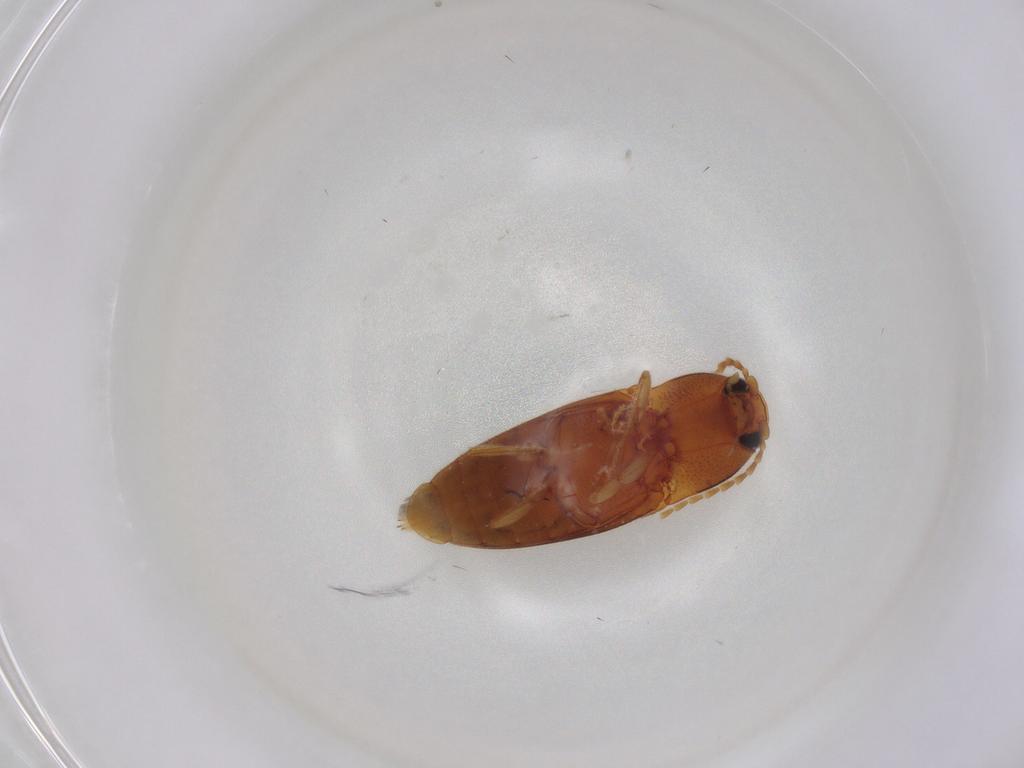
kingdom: Animalia
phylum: Arthropoda
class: Insecta
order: Coleoptera
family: Elateridae
